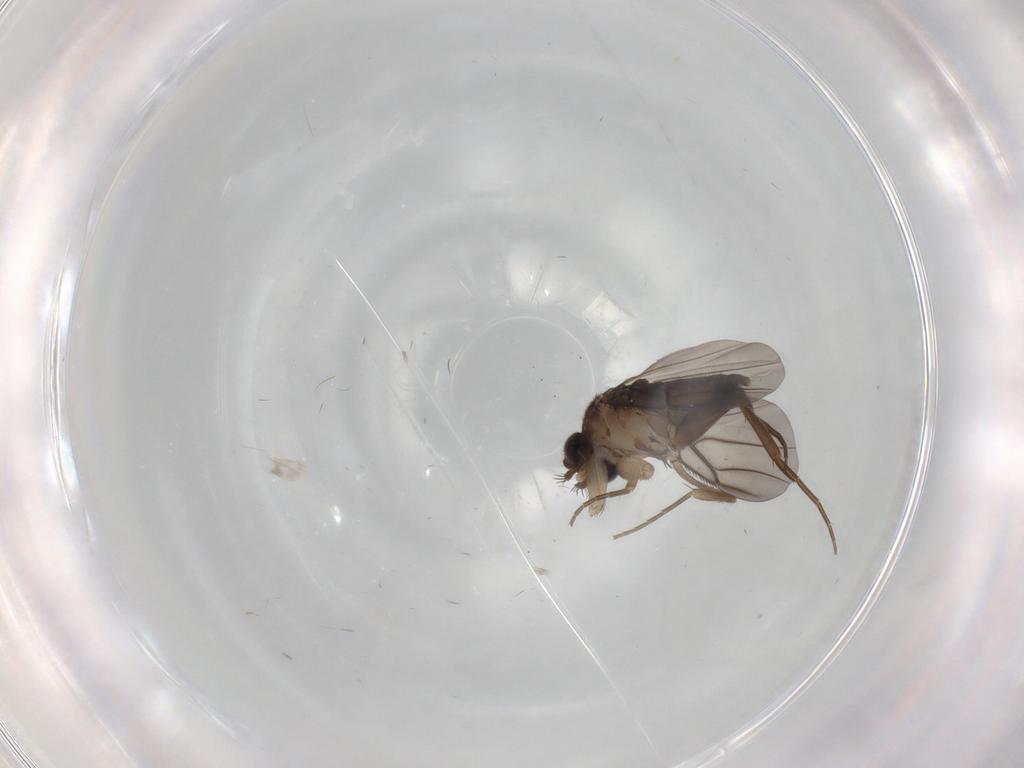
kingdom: Animalia
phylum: Arthropoda
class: Insecta
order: Diptera
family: Phoridae
